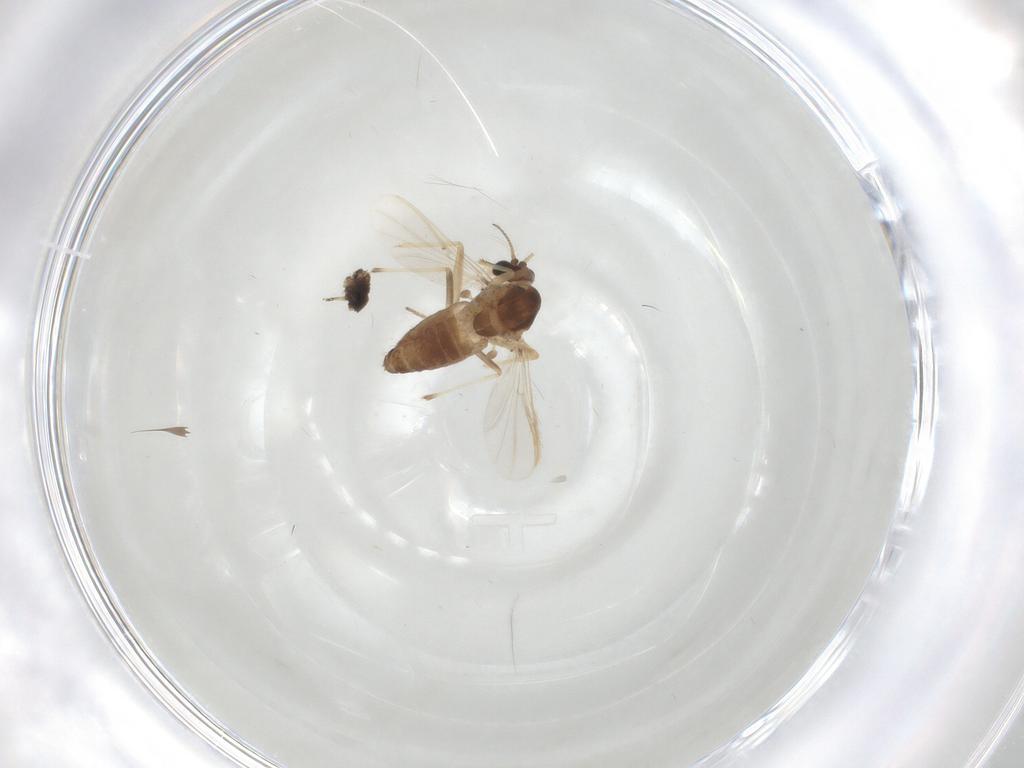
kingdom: Animalia
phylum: Arthropoda
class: Insecta
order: Diptera
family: Chironomidae
